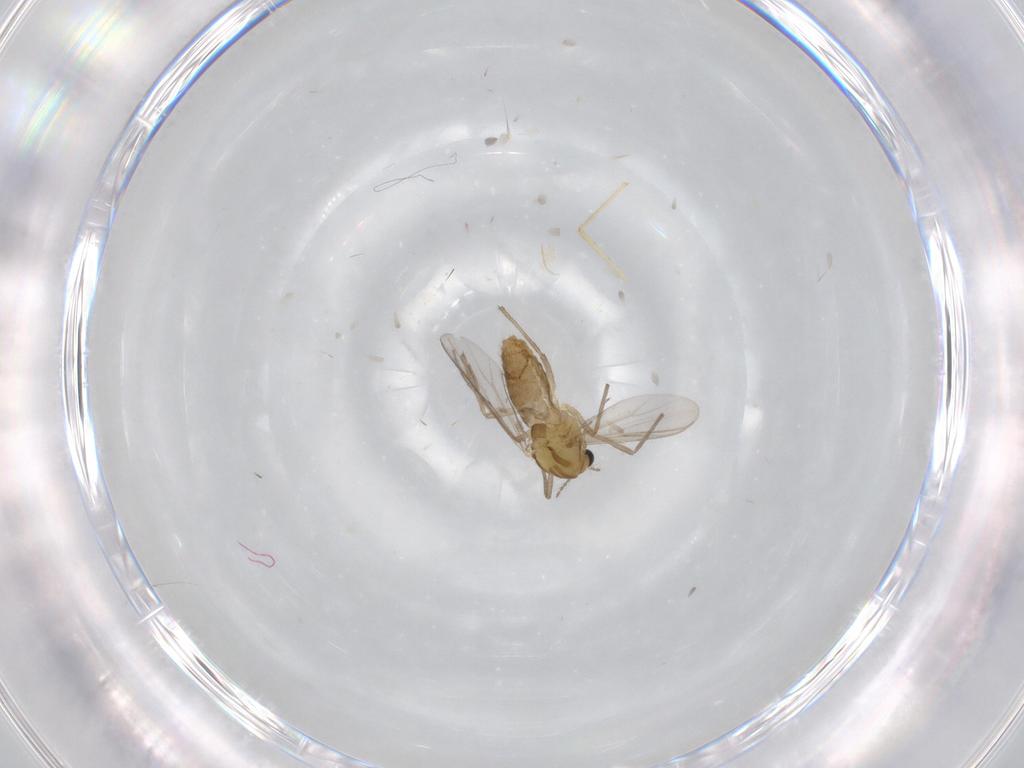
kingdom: Animalia
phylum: Arthropoda
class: Insecta
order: Diptera
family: Chironomidae
